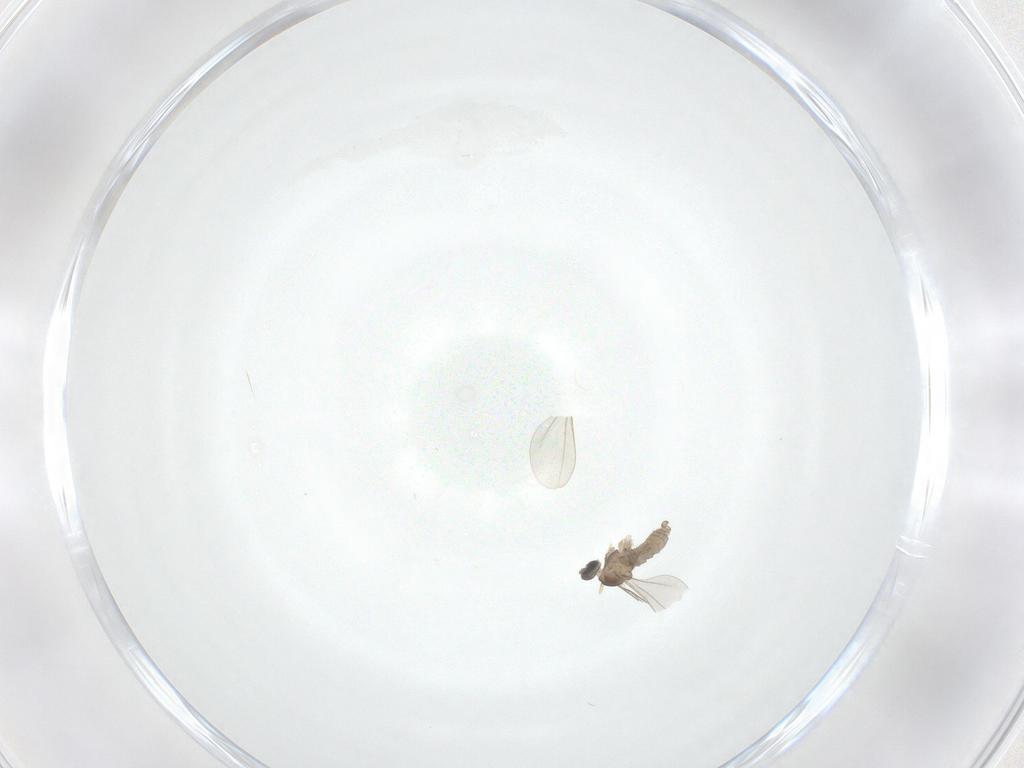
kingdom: Animalia
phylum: Arthropoda
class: Insecta
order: Diptera
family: Cecidomyiidae
